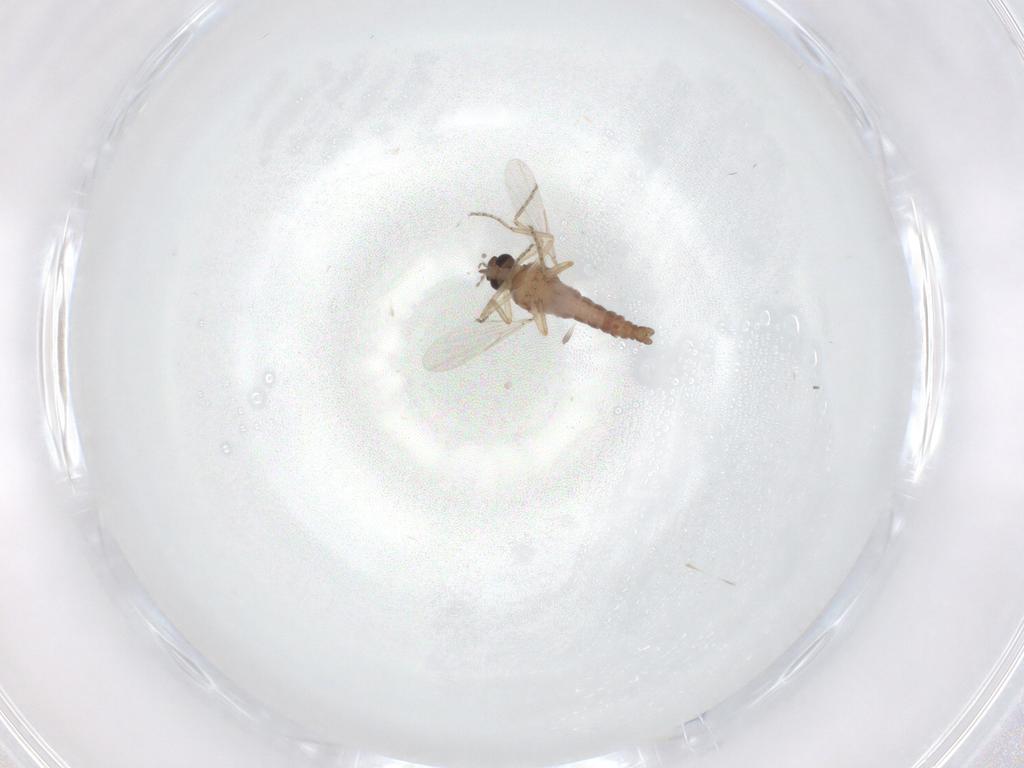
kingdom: Animalia
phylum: Arthropoda
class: Insecta
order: Diptera
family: Ceratopogonidae
